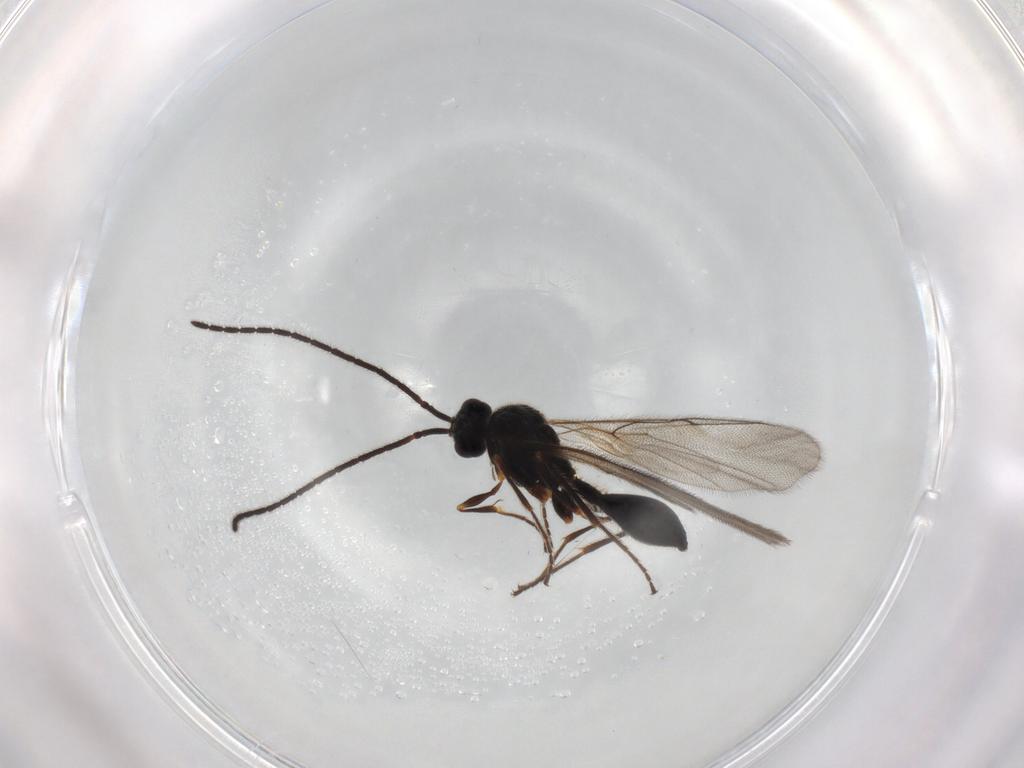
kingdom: Animalia
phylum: Arthropoda
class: Insecta
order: Hymenoptera
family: Diapriidae
